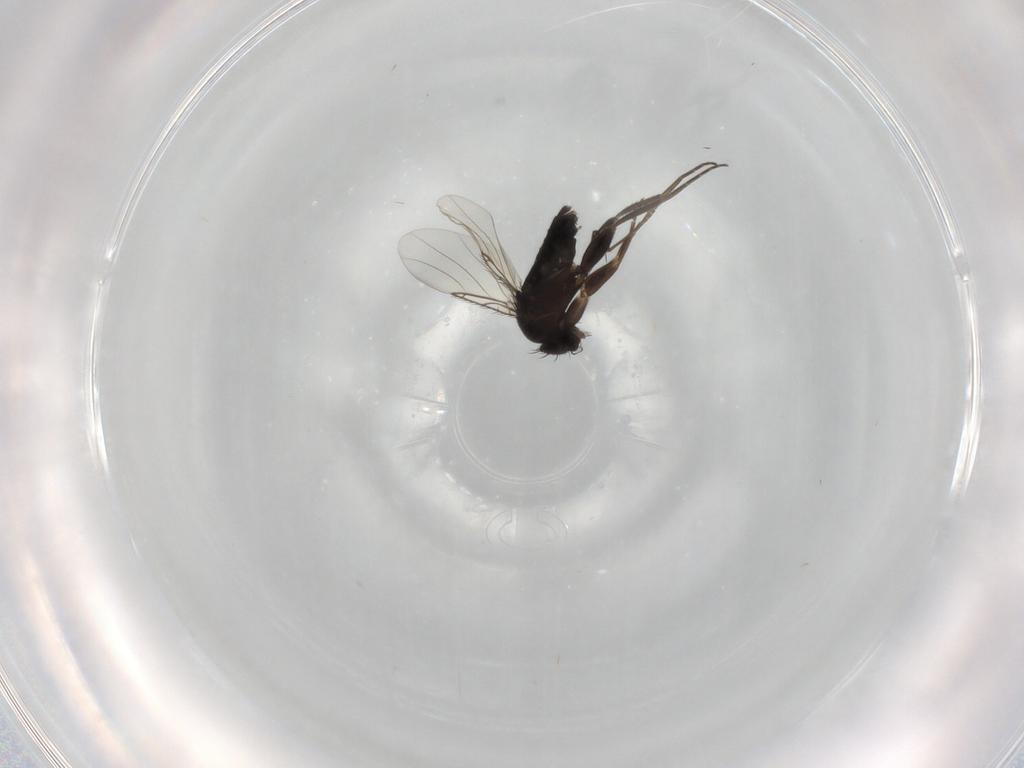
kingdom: Animalia
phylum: Arthropoda
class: Insecta
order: Diptera
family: Phoridae
